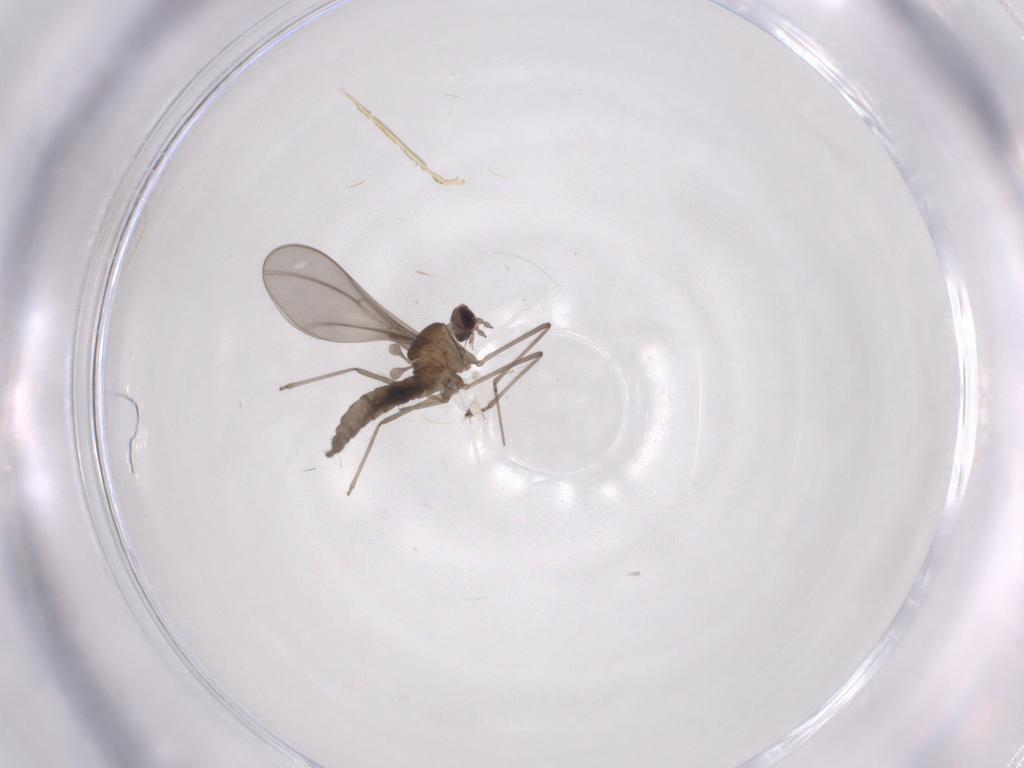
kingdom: Animalia
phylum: Arthropoda
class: Insecta
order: Diptera
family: Cecidomyiidae
